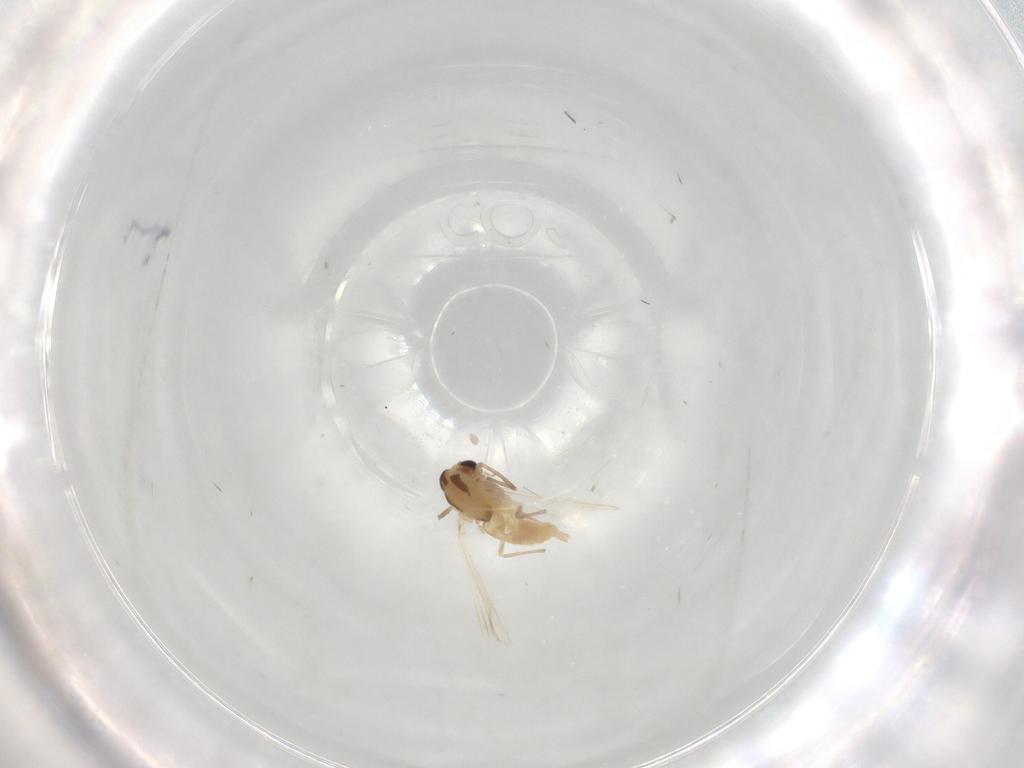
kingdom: Animalia
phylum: Arthropoda
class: Insecta
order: Diptera
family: Chironomidae
